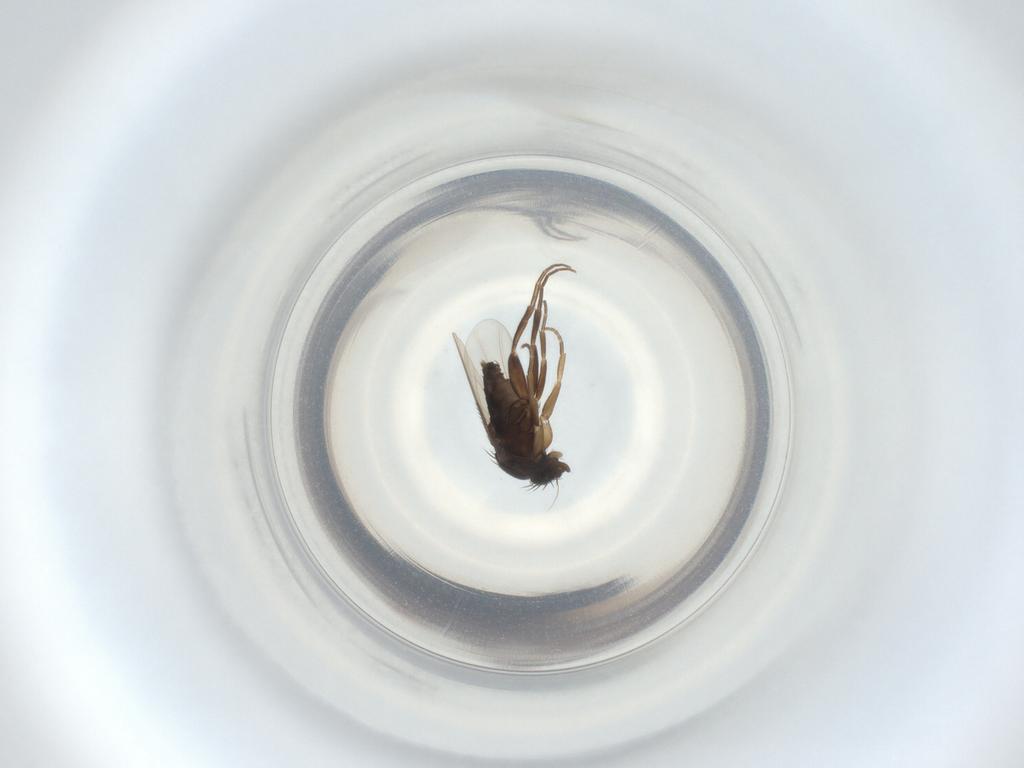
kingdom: Animalia
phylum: Arthropoda
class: Insecta
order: Diptera
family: Phoridae
